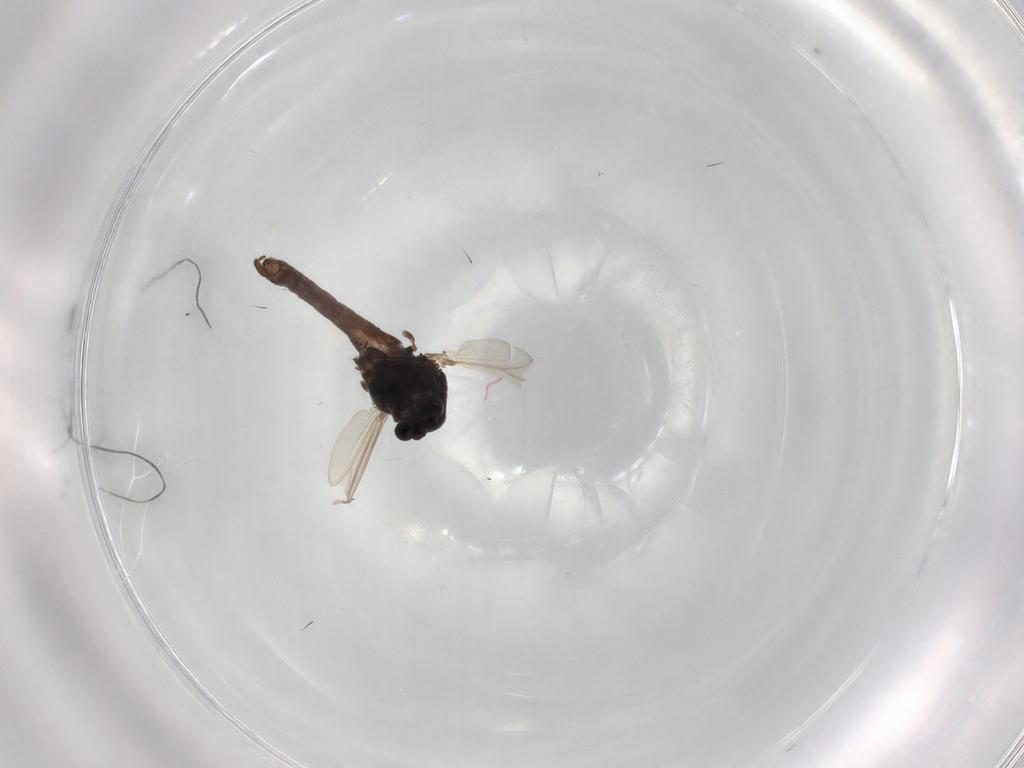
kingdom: Animalia
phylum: Arthropoda
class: Insecta
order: Diptera
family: Chironomidae
